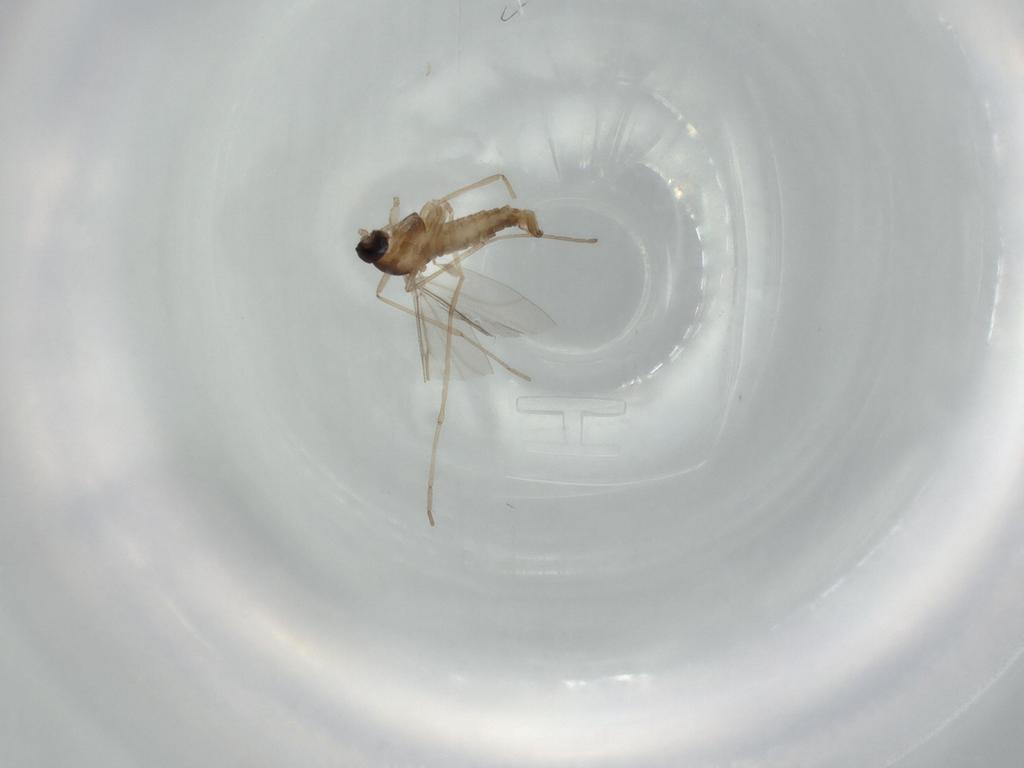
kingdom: Animalia
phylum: Arthropoda
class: Insecta
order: Diptera
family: Cecidomyiidae
